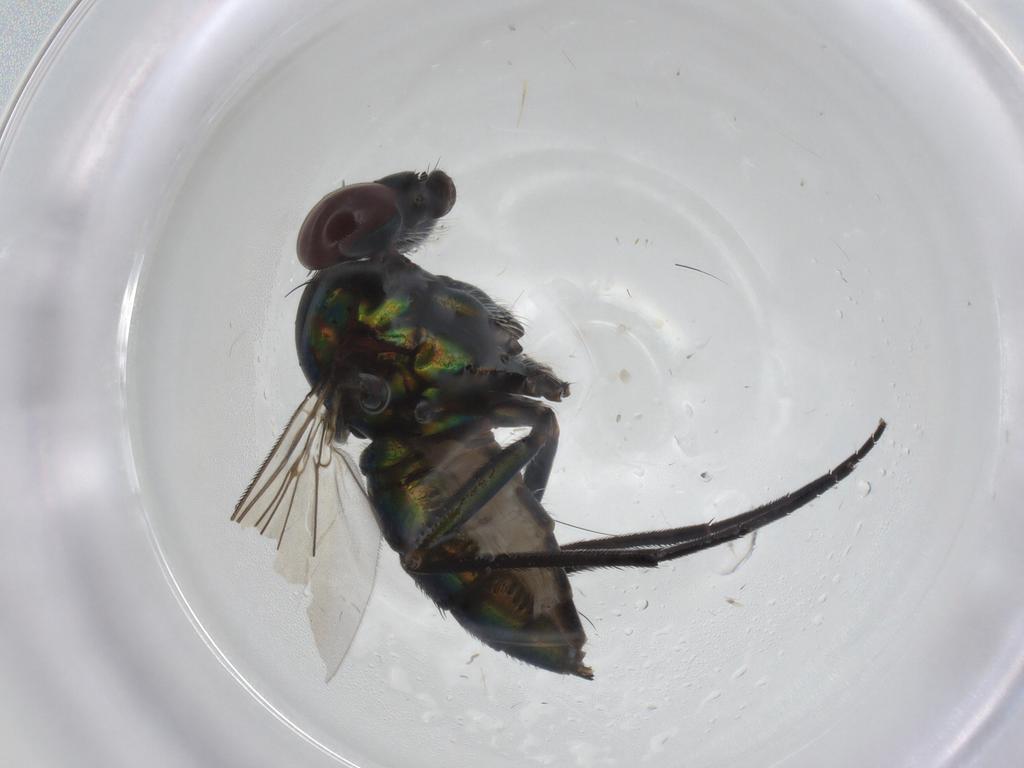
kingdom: Animalia
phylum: Arthropoda
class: Insecta
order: Diptera
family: Dolichopodidae
